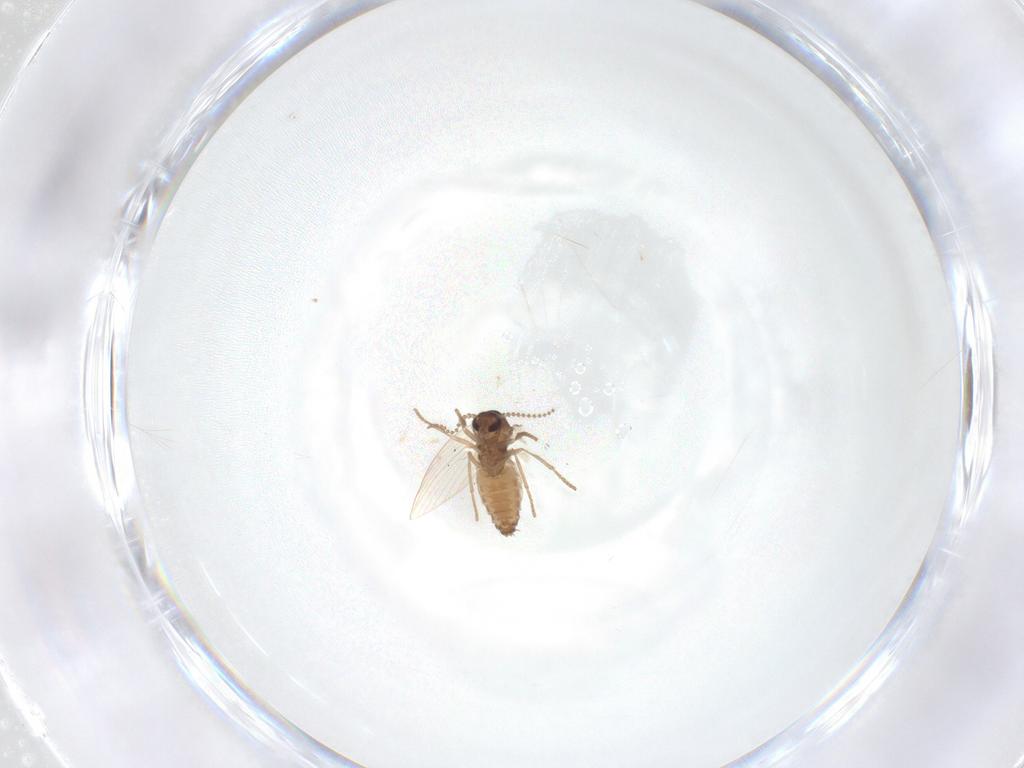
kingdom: Animalia
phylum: Arthropoda
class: Insecta
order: Diptera
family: Psychodidae
